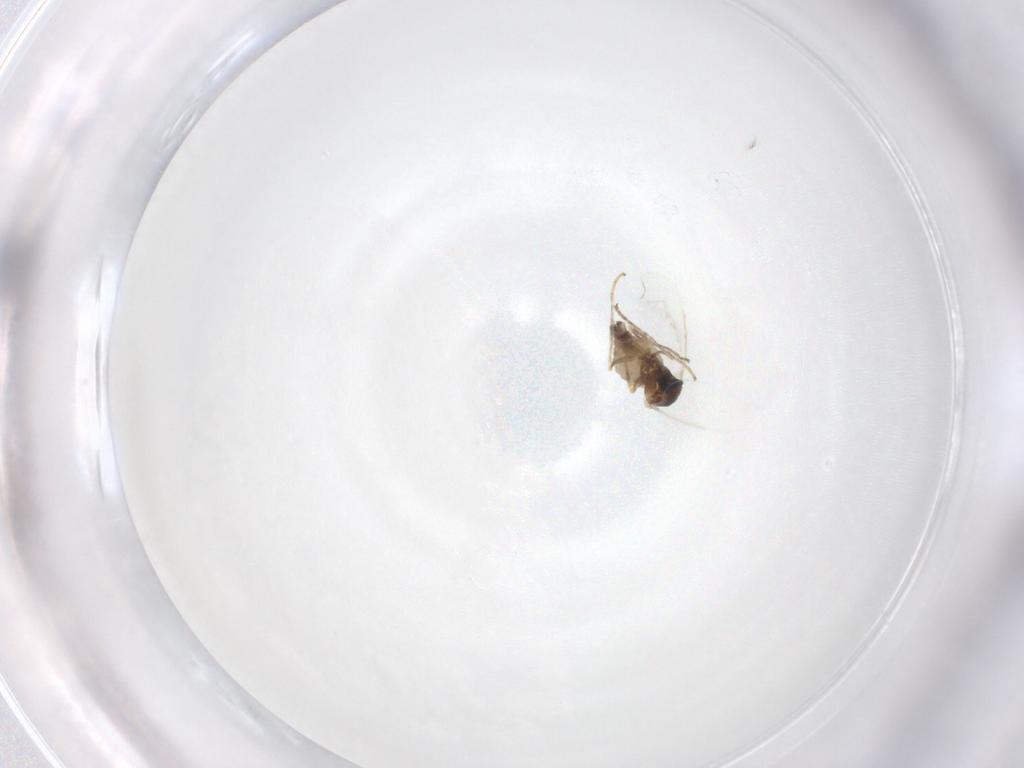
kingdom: Animalia
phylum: Arthropoda
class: Insecta
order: Diptera
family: Cecidomyiidae
